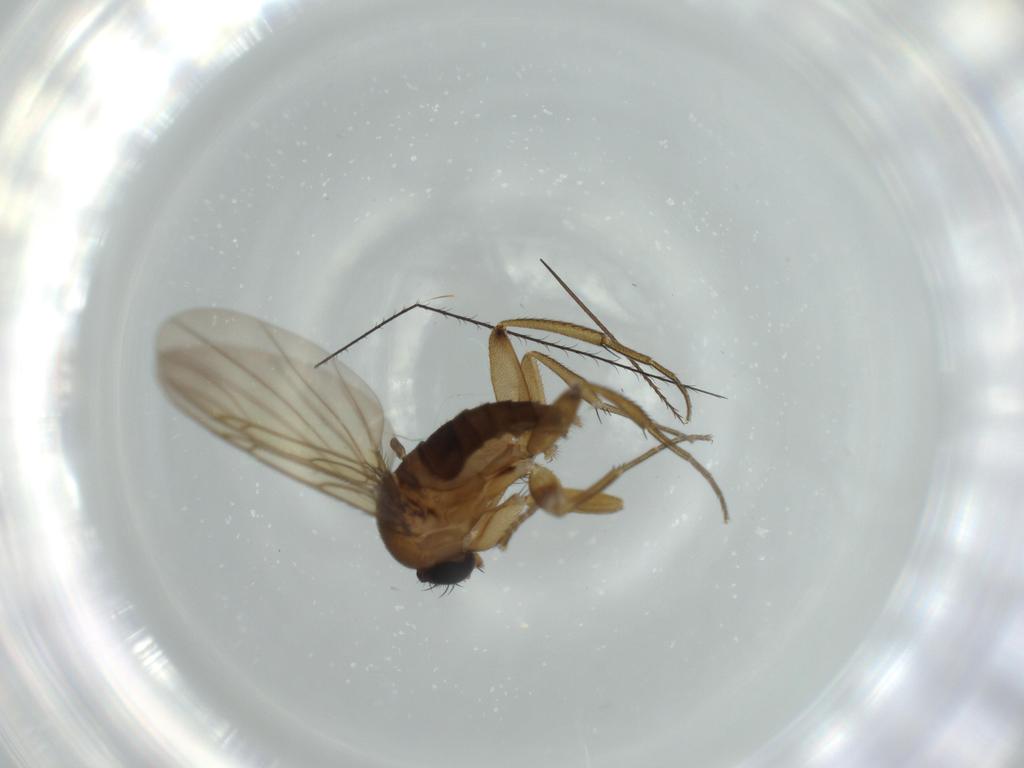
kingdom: Animalia
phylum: Arthropoda
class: Insecta
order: Diptera
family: Phoridae
